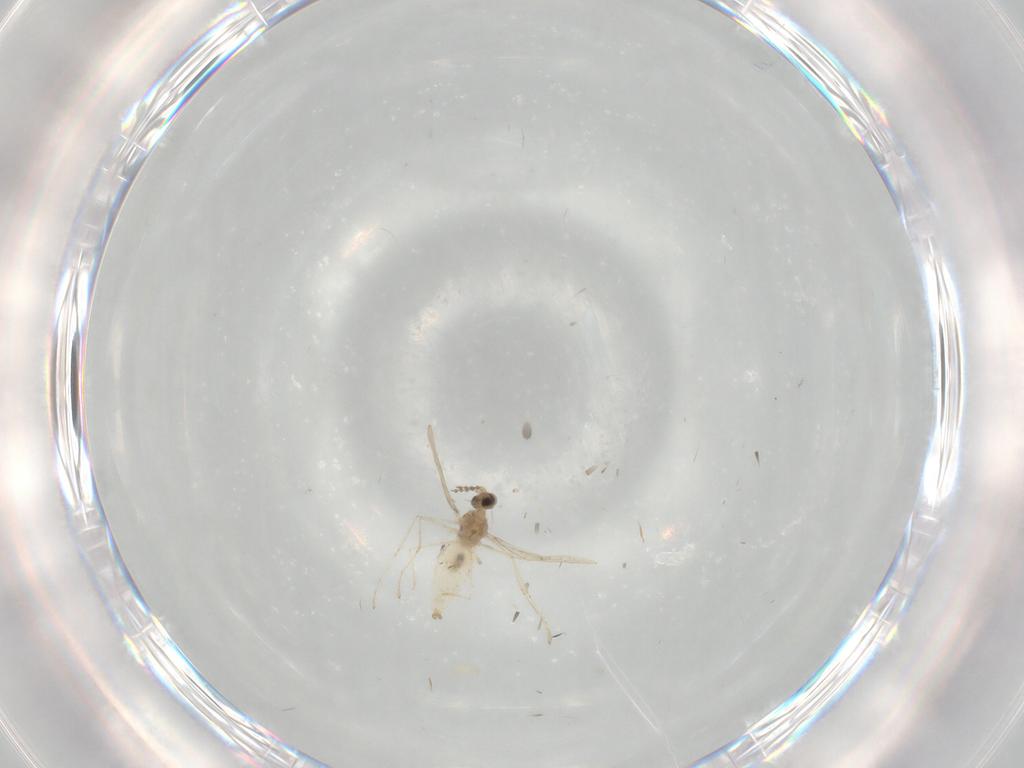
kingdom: Animalia
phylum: Arthropoda
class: Insecta
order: Diptera
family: Cecidomyiidae
